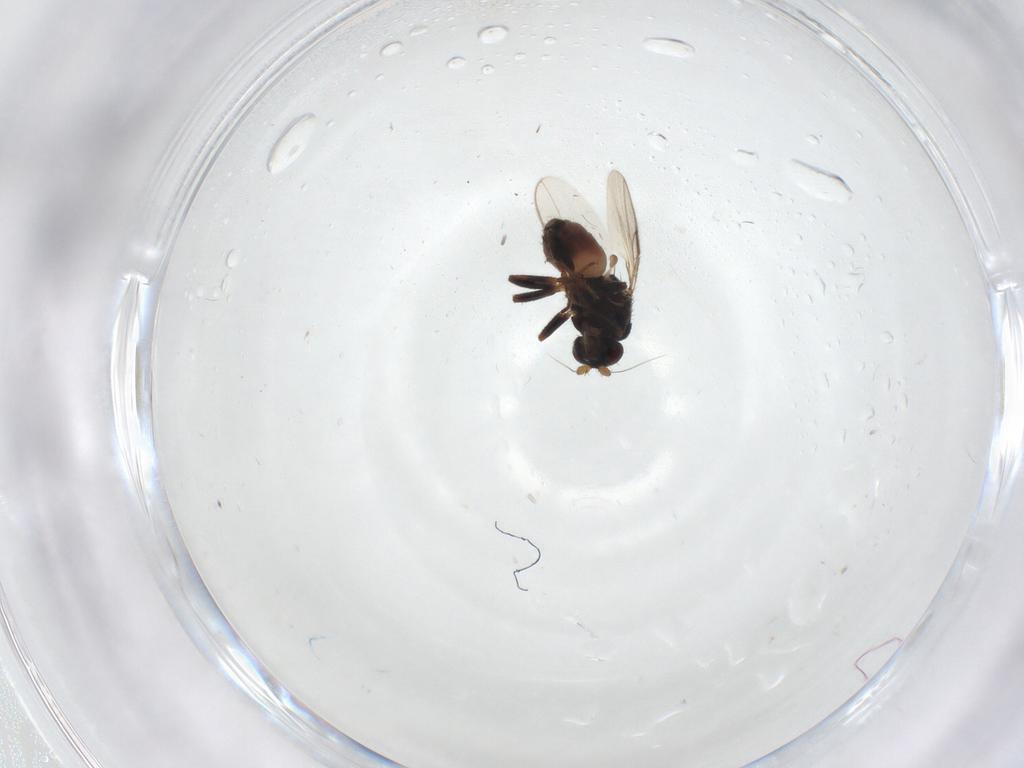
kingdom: Animalia
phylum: Arthropoda
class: Insecta
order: Diptera
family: Sphaeroceridae
